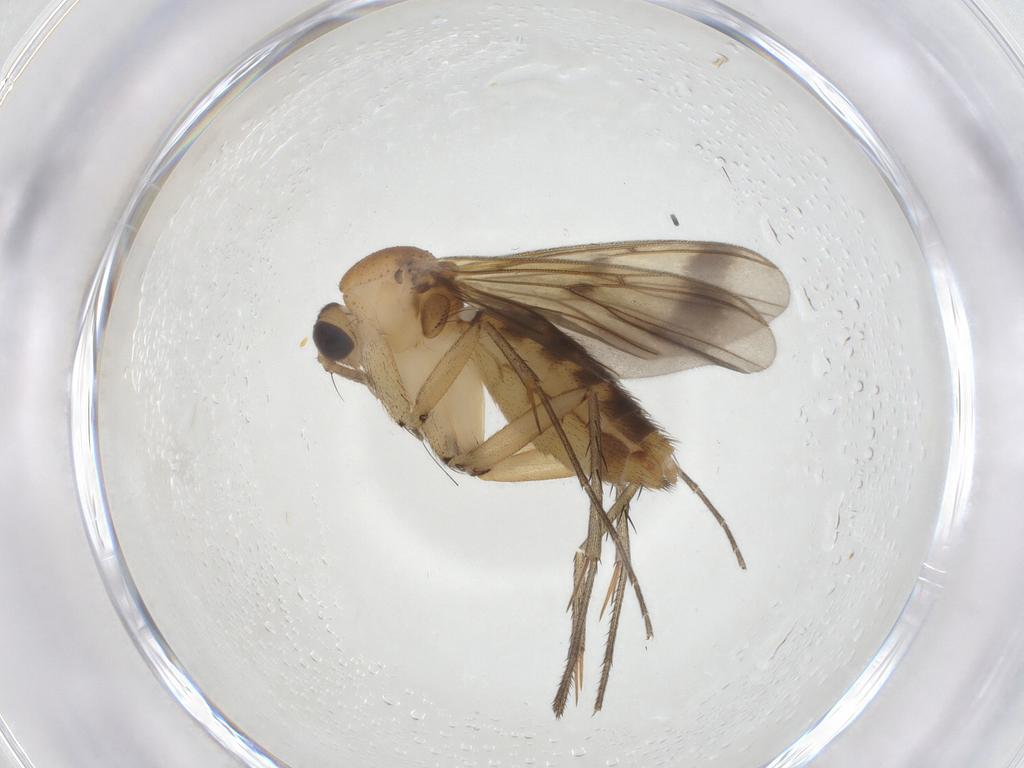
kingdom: Animalia
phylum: Arthropoda
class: Insecta
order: Diptera
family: Mycetophilidae
